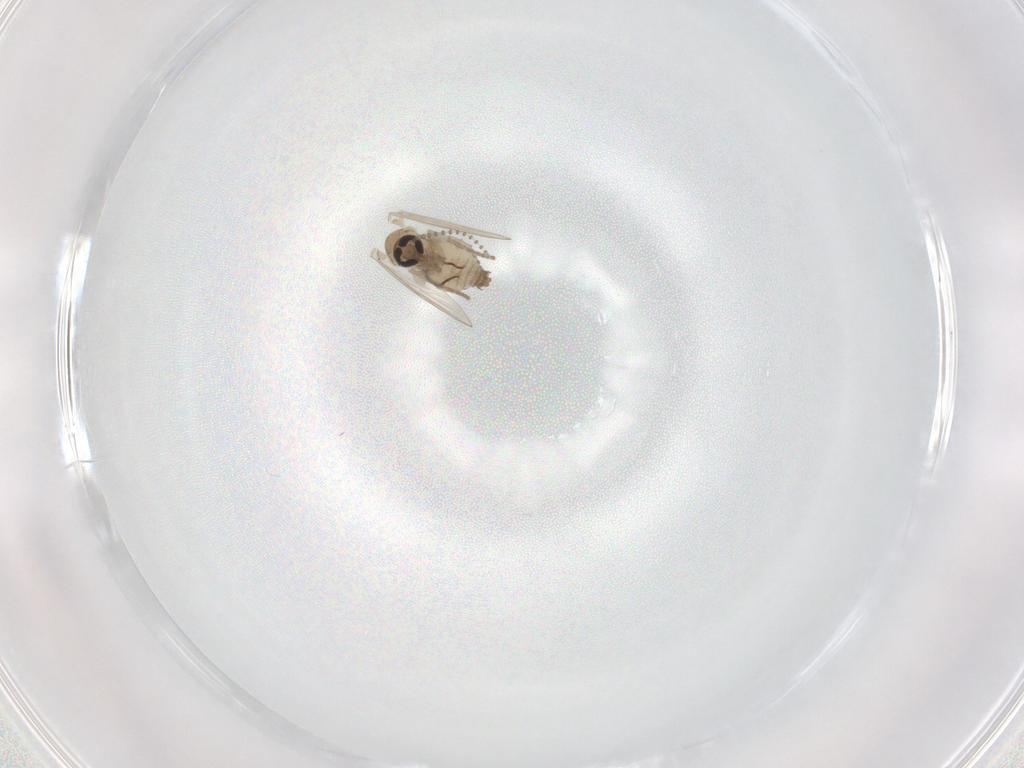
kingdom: Animalia
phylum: Arthropoda
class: Insecta
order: Diptera
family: Psychodidae
